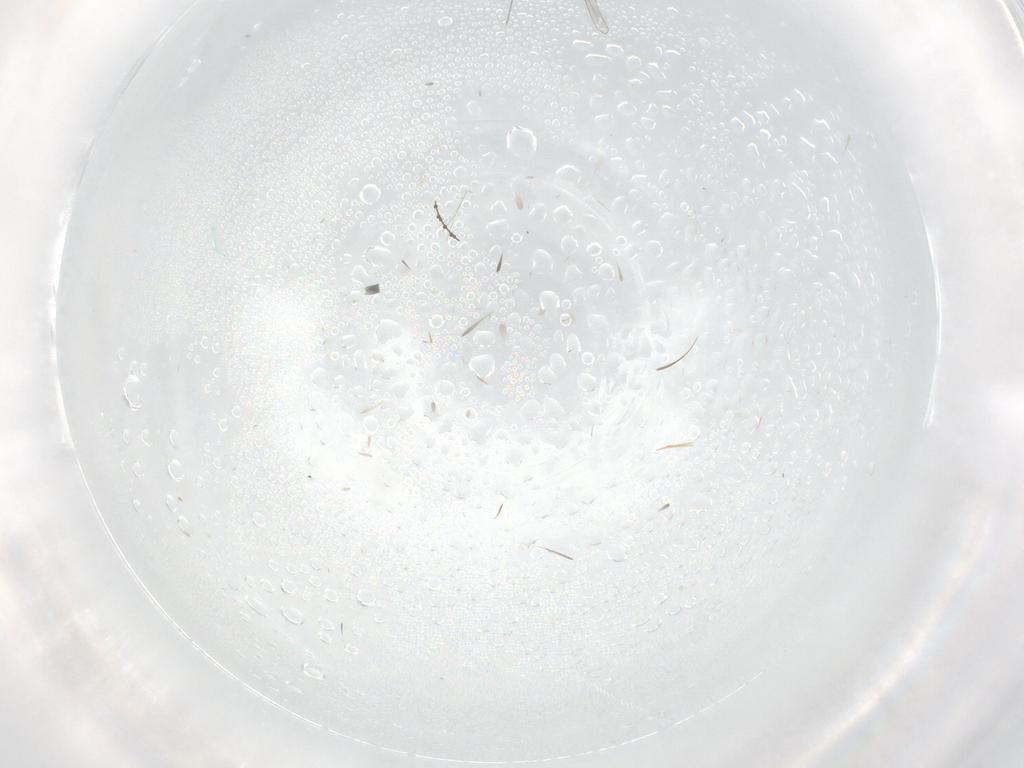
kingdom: Animalia
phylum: Arthropoda
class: Insecta
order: Diptera
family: Cecidomyiidae
